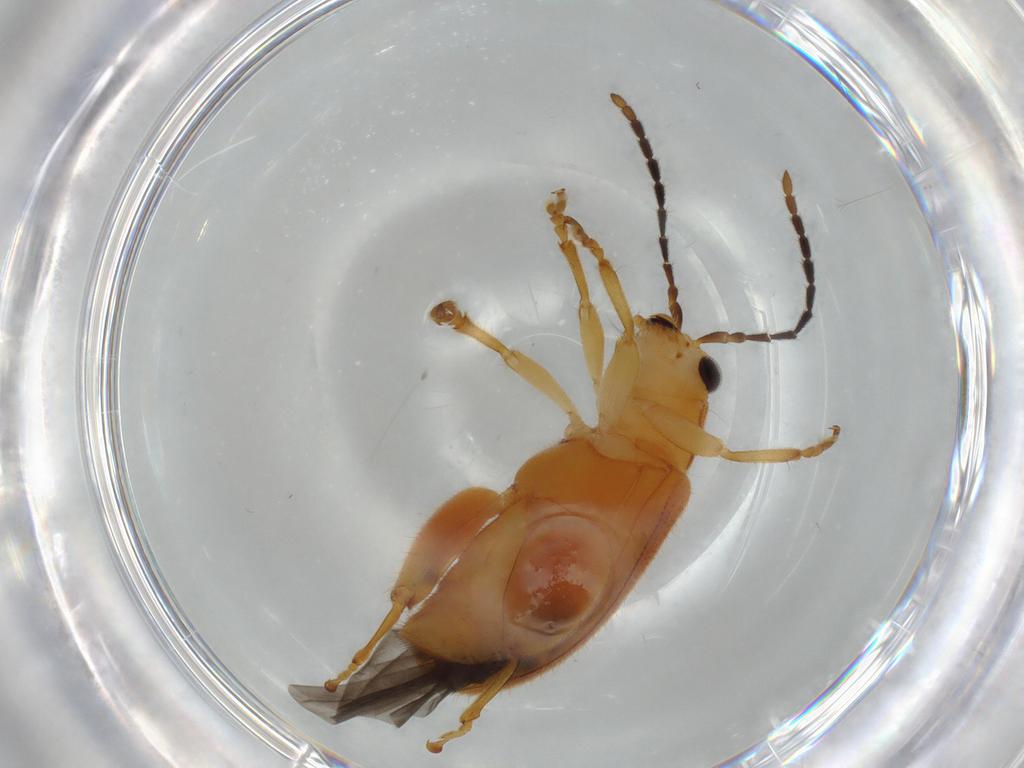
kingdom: Animalia
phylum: Arthropoda
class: Insecta
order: Coleoptera
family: Chrysomelidae
